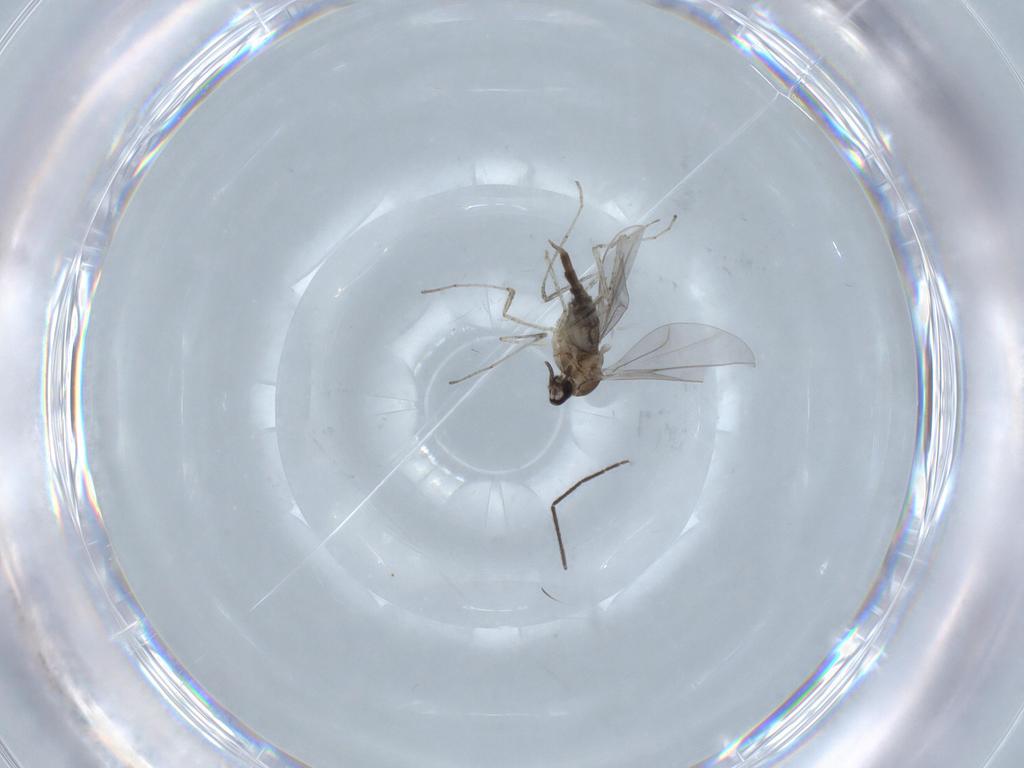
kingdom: Animalia
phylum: Arthropoda
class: Insecta
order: Diptera
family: Cecidomyiidae
